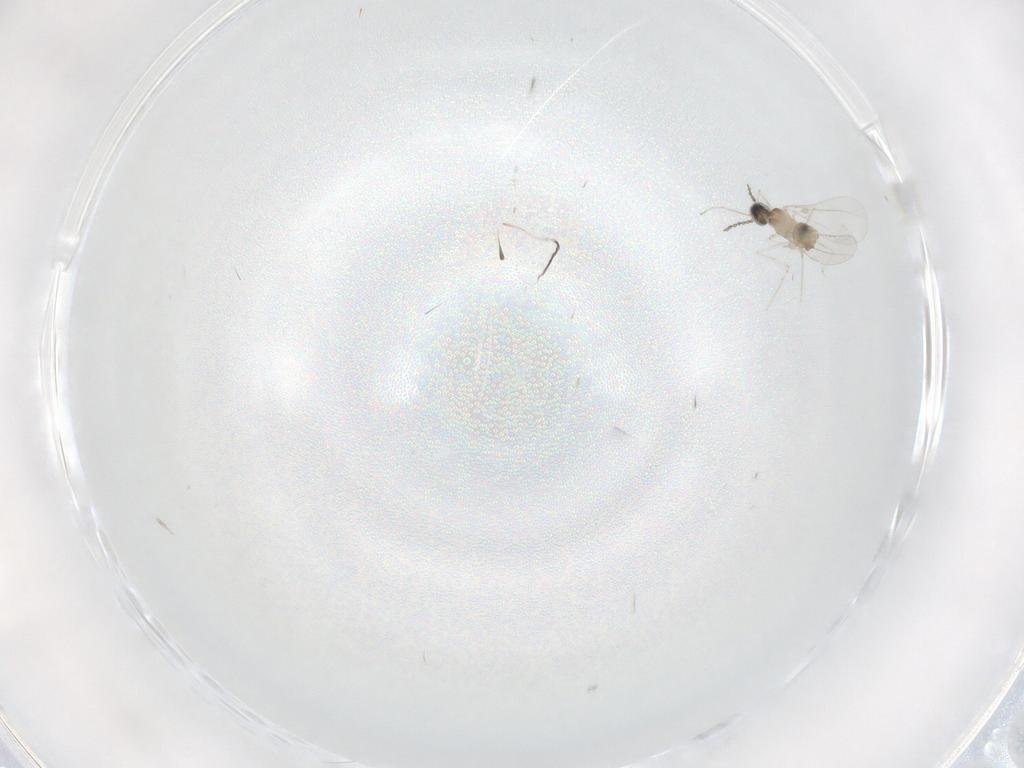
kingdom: Animalia
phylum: Arthropoda
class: Insecta
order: Diptera
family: Cecidomyiidae
